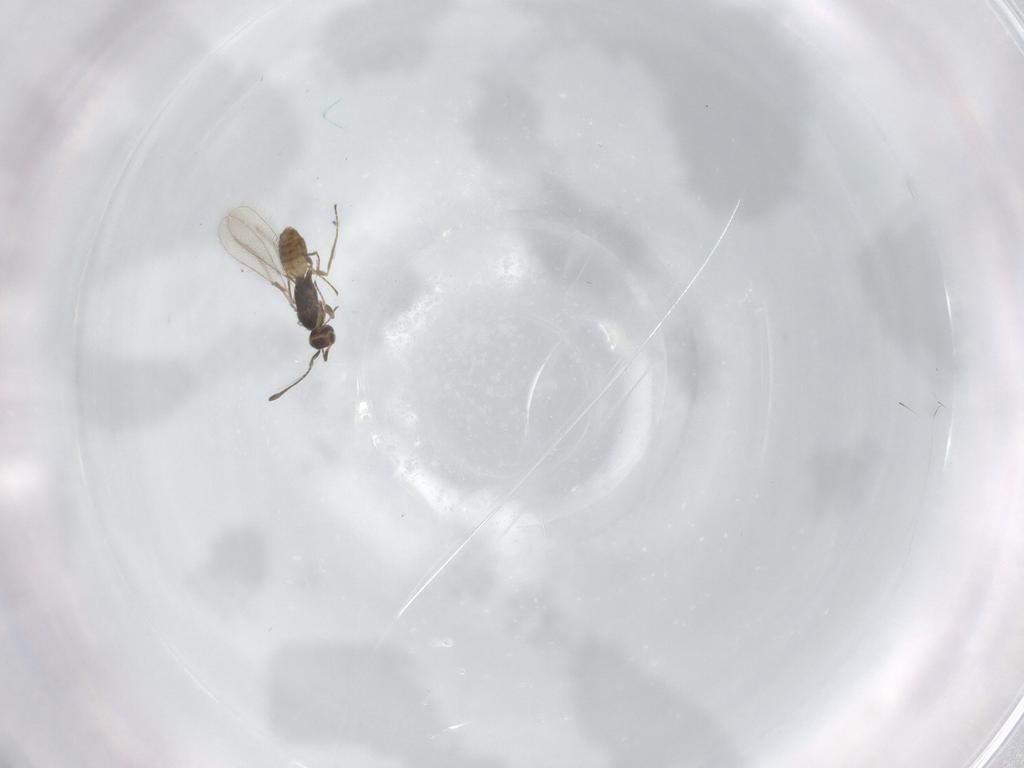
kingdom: Animalia
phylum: Arthropoda
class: Insecta
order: Hymenoptera
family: Mymaridae
